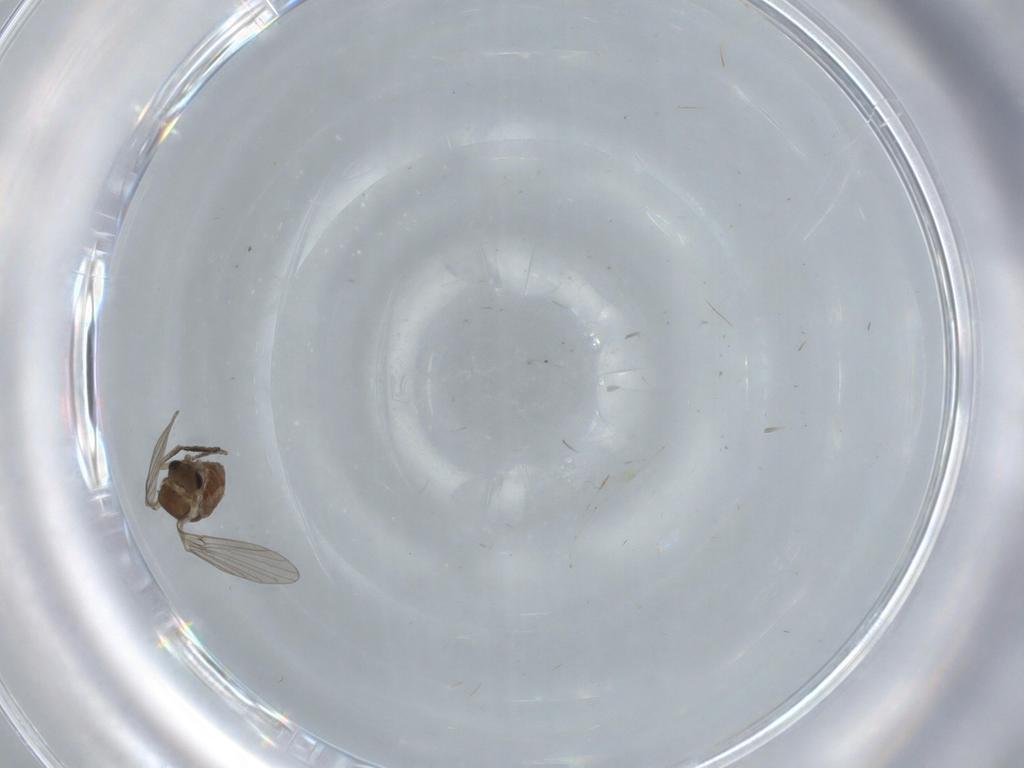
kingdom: Animalia
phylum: Arthropoda
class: Insecta
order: Diptera
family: Cecidomyiidae
